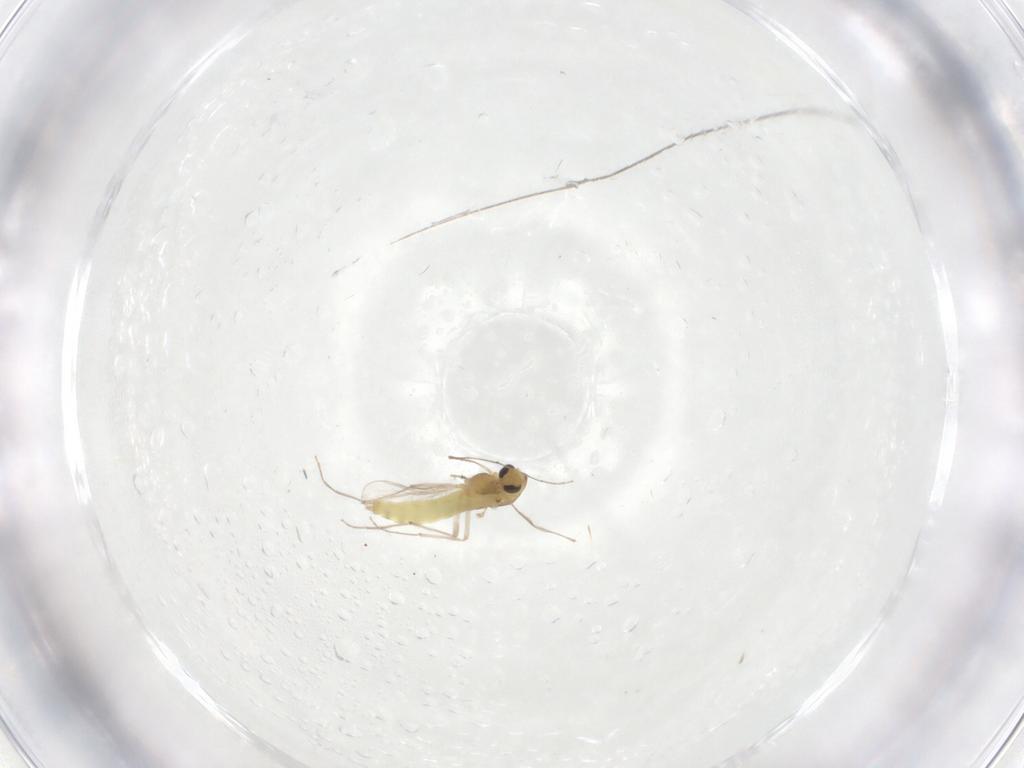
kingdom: Animalia
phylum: Arthropoda
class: Insecta
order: Diptera
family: Chironomidae
